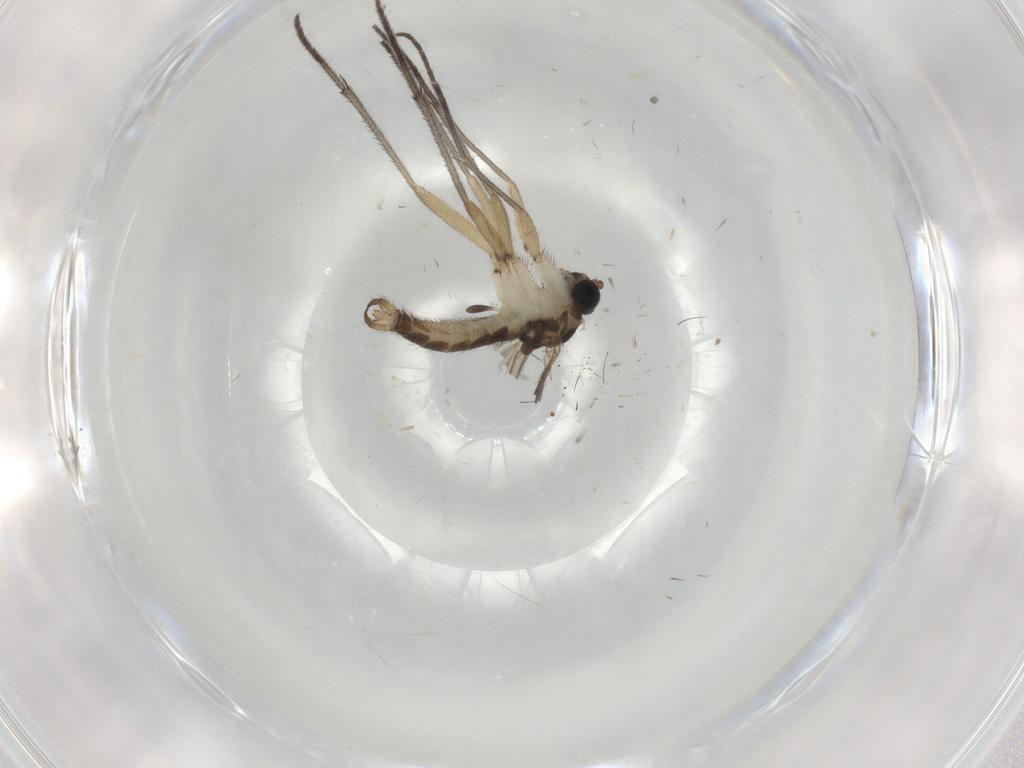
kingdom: Animalia
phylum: Arthropoda
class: Insecta
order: Diptera
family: Sciaridae
